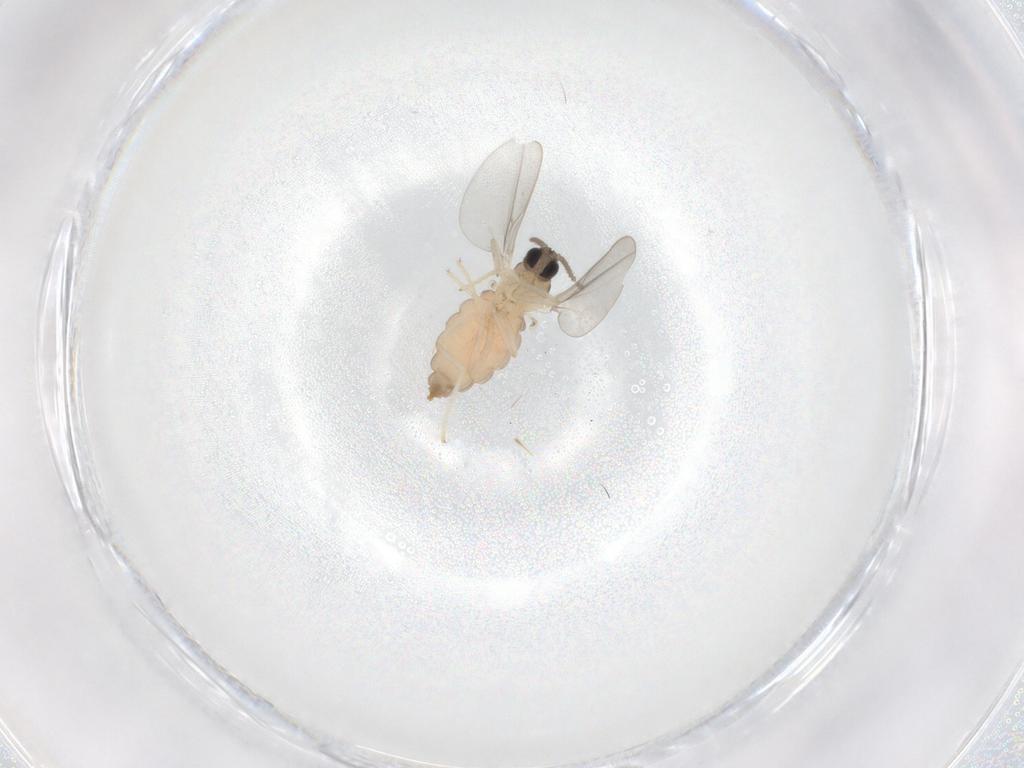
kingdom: Animalia
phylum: Arthropoda
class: Insecta
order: Diptera
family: Cecidomyiidae
